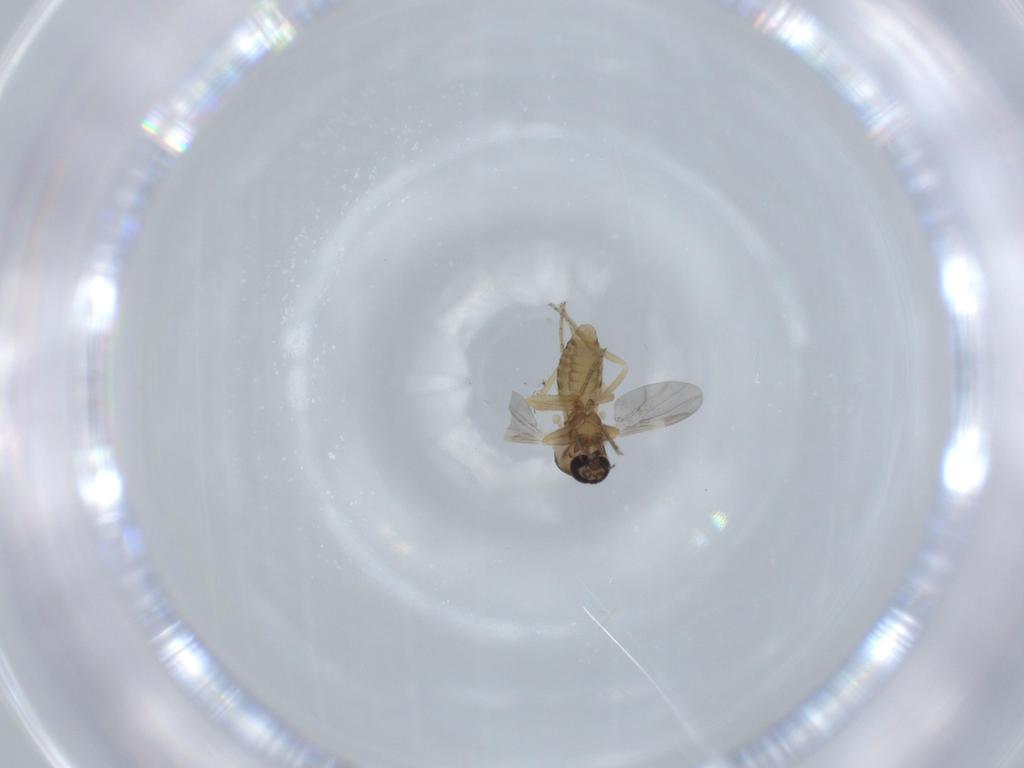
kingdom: Animalia
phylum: Arthropoda
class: Insecta
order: Diptera
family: Ceratopogonidae
